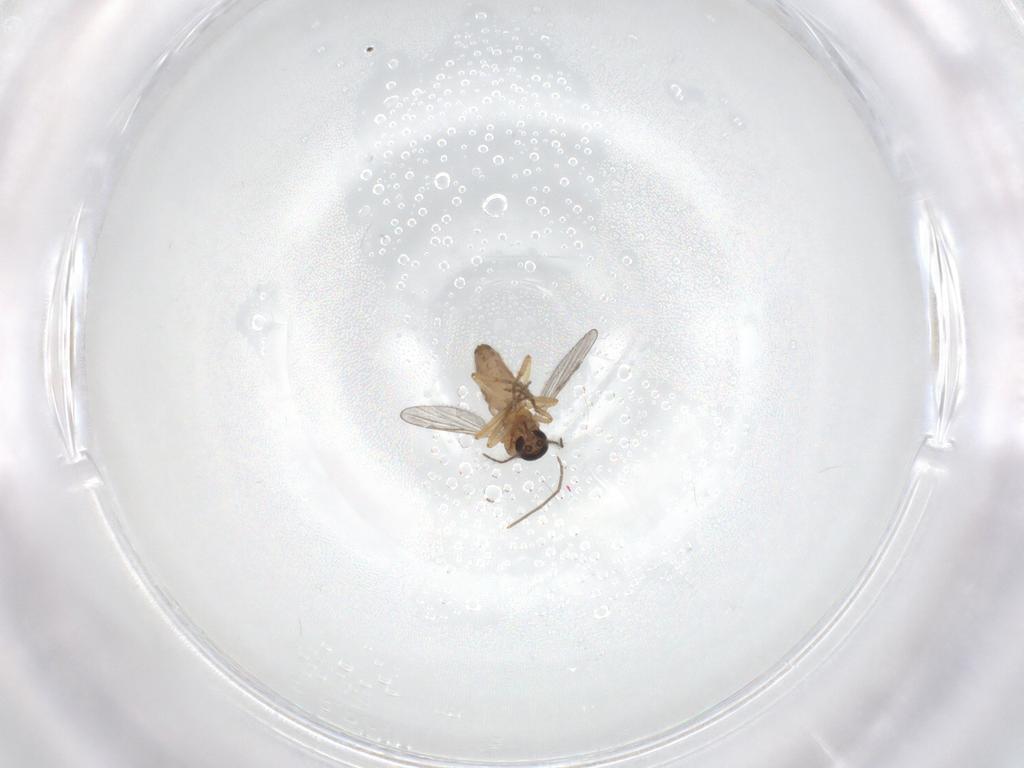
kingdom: Animalia
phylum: Arthropoda
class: Insecta
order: Diptera
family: Chironomidae
